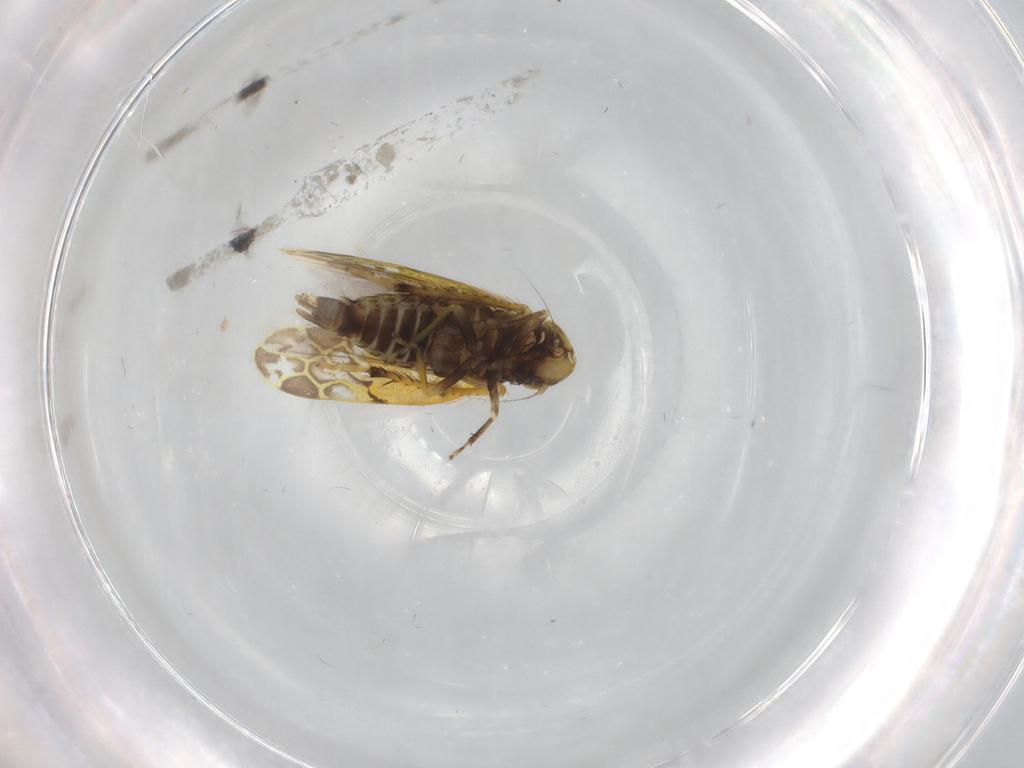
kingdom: Animalia
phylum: Arthropoda
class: Insecta
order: Hemiptera
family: Cicadellidae
